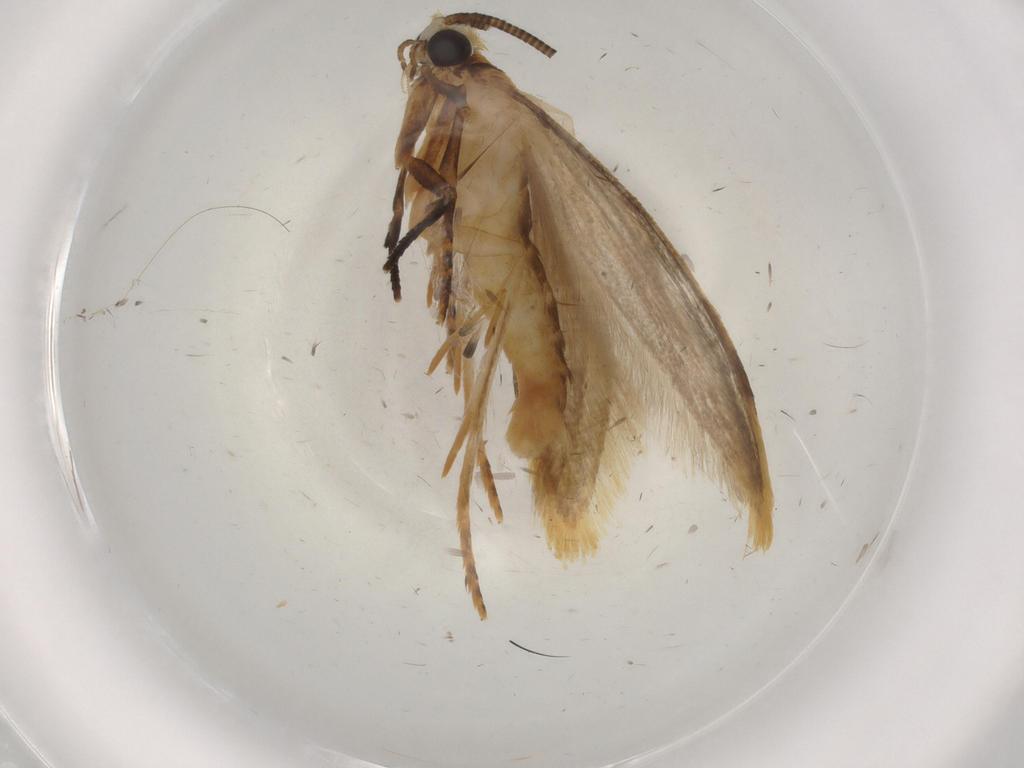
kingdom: Animalia
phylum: Arthropoda
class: Insecta
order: Lepidoptera
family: Tineidae
